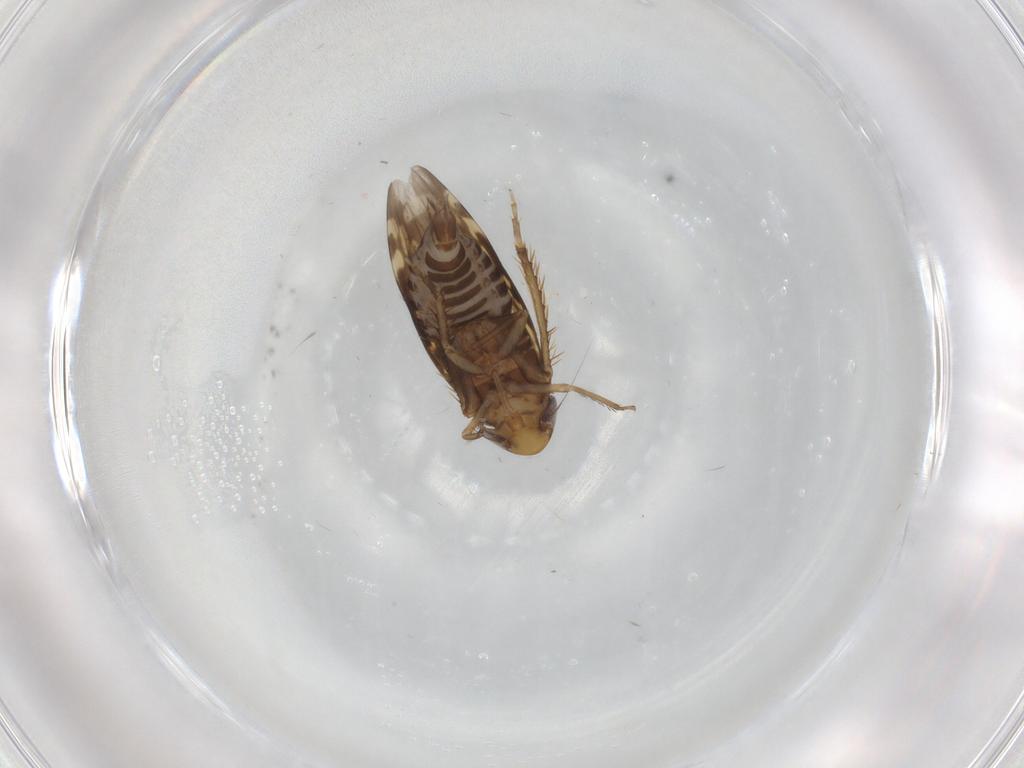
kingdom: Animalia
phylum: Arthropoda
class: Insecta
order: Hemiptera
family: Cicadellidae
